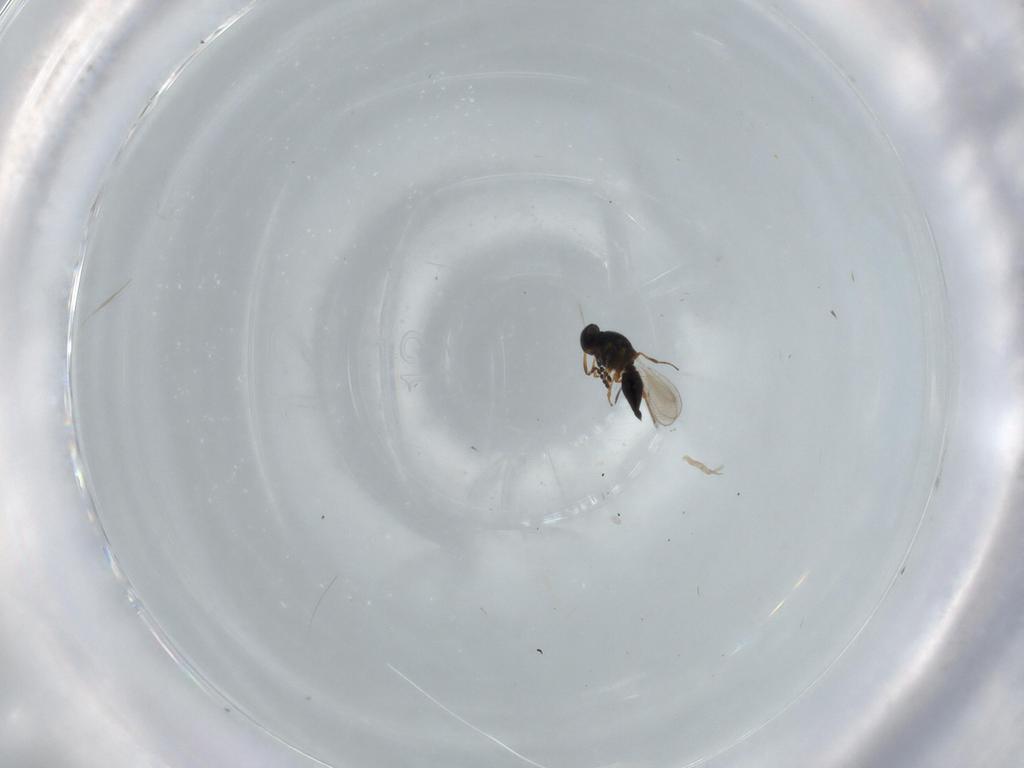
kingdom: Animalia
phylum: Arthropoda
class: Insecta
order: Hymenoptera
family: Platygastridae
